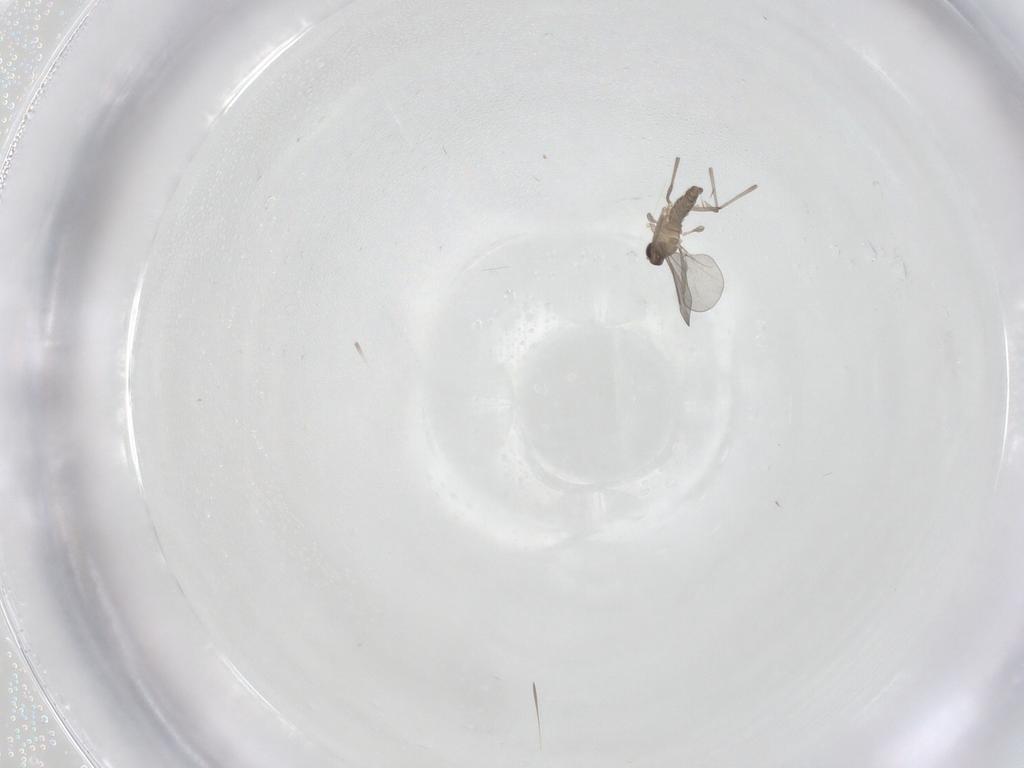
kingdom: Animalia
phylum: Arthropoda
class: Insecta
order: Diptera
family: Cecidomyiidae
